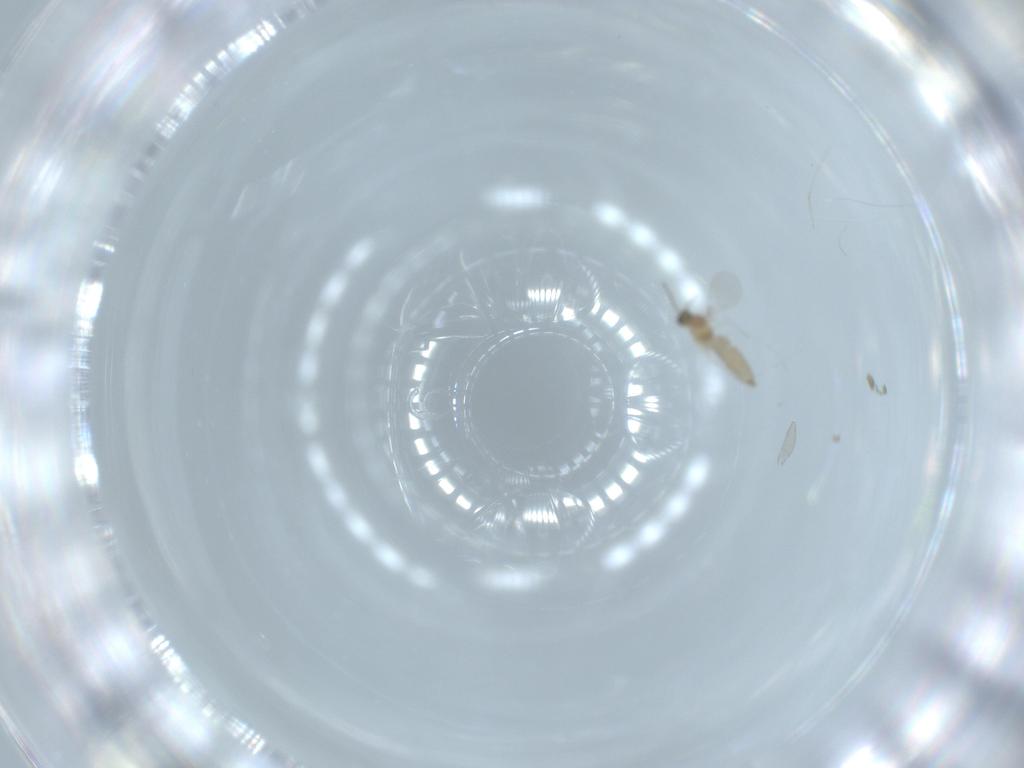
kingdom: Animalia
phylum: Arthropoda
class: Insecta
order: Diptera
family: Cecidomyiidae
